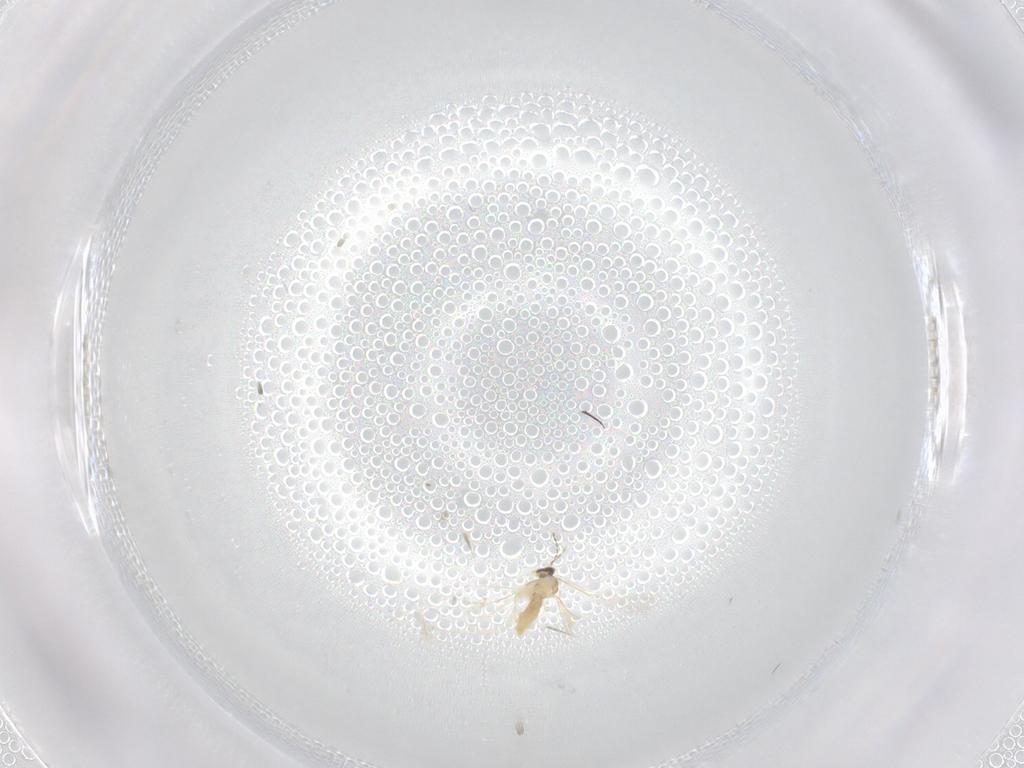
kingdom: Animalia
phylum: Arthropoda
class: Insecta
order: Diptera
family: Cecidomyiidae
